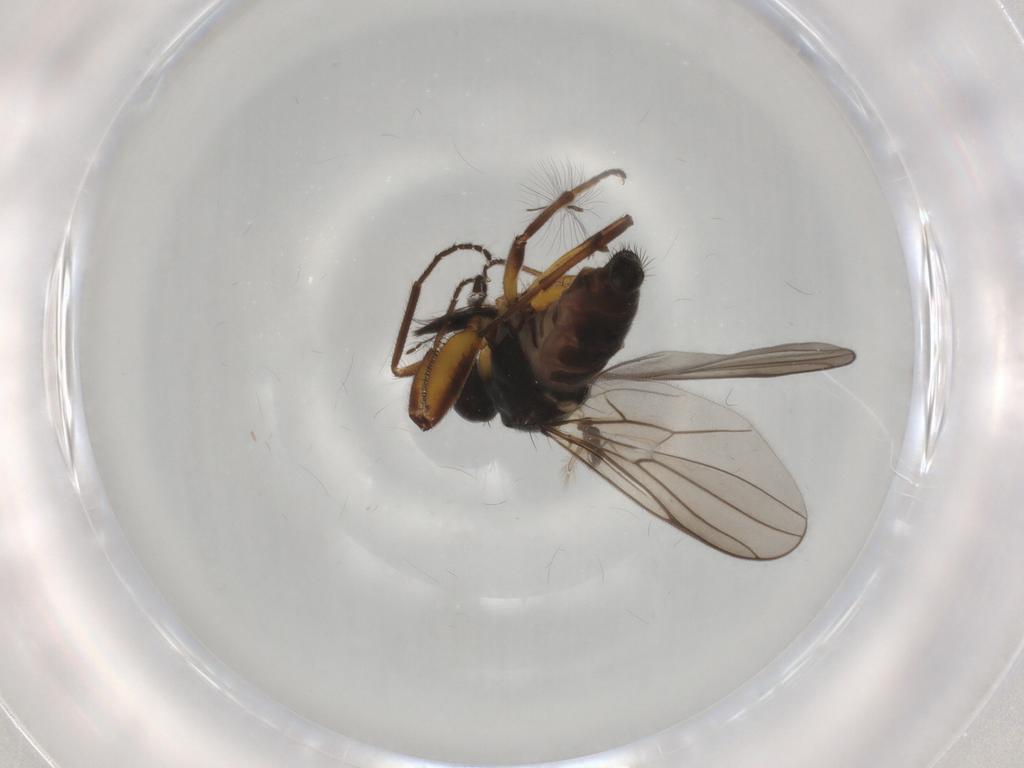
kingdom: Animalia
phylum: Arthropoda
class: Insecta
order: Diptera
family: Hybotidae
